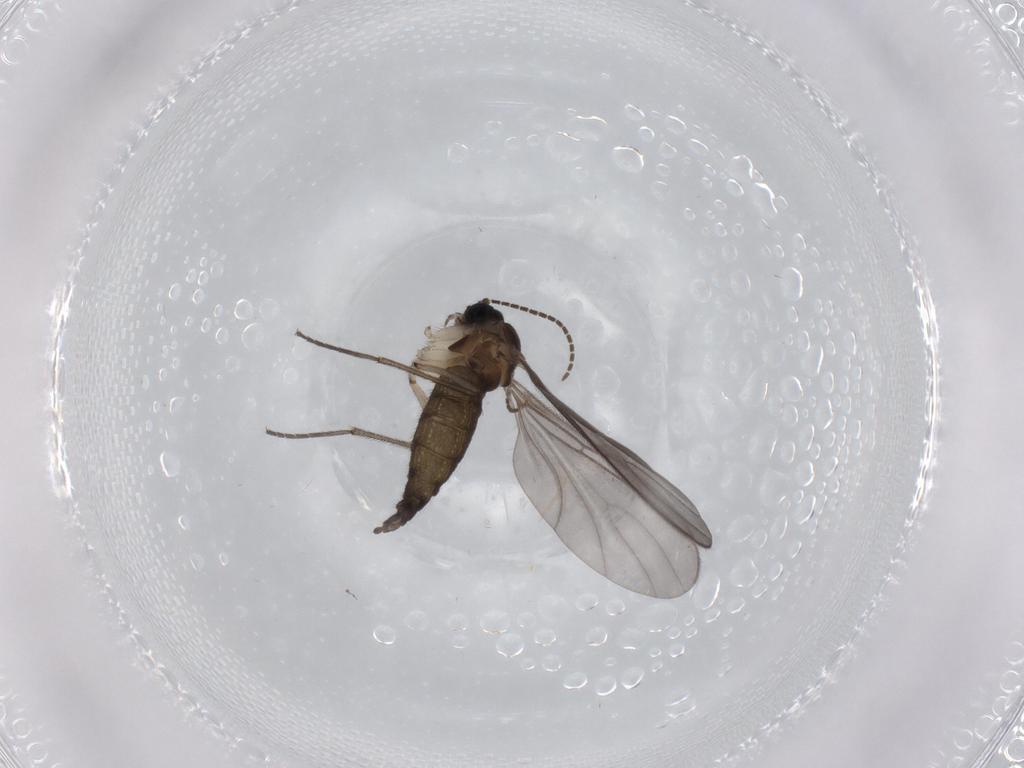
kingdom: Animalia
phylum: Arthropoda
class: Insecta
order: Diptera
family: Sciaridae
